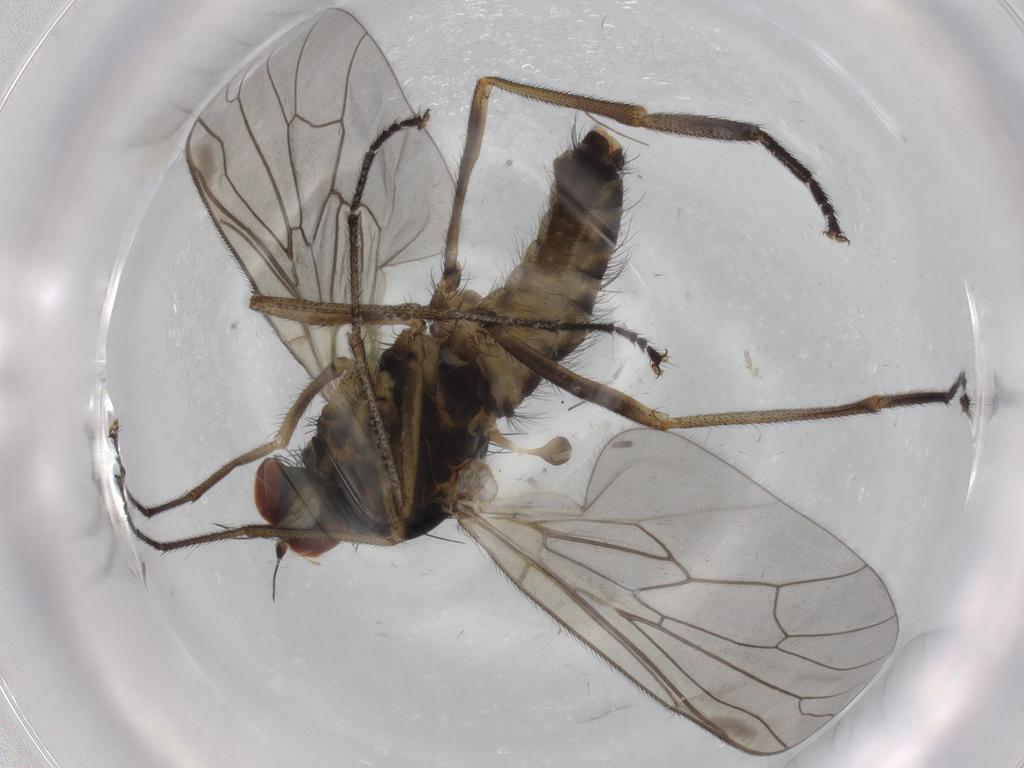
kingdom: Animalia
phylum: Arthropoda
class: Insecta
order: Diptera
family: Brachystomatidae
